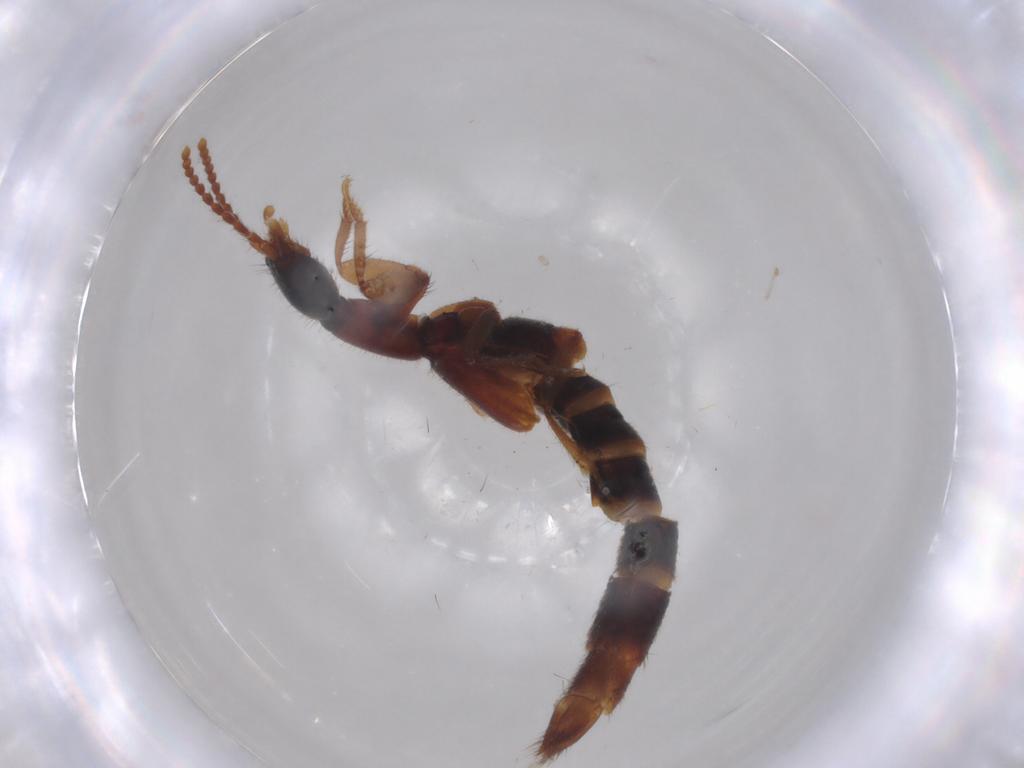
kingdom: Animalia
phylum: Arthropoda
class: Insecta
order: Coleoptera
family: Staphylinidae
